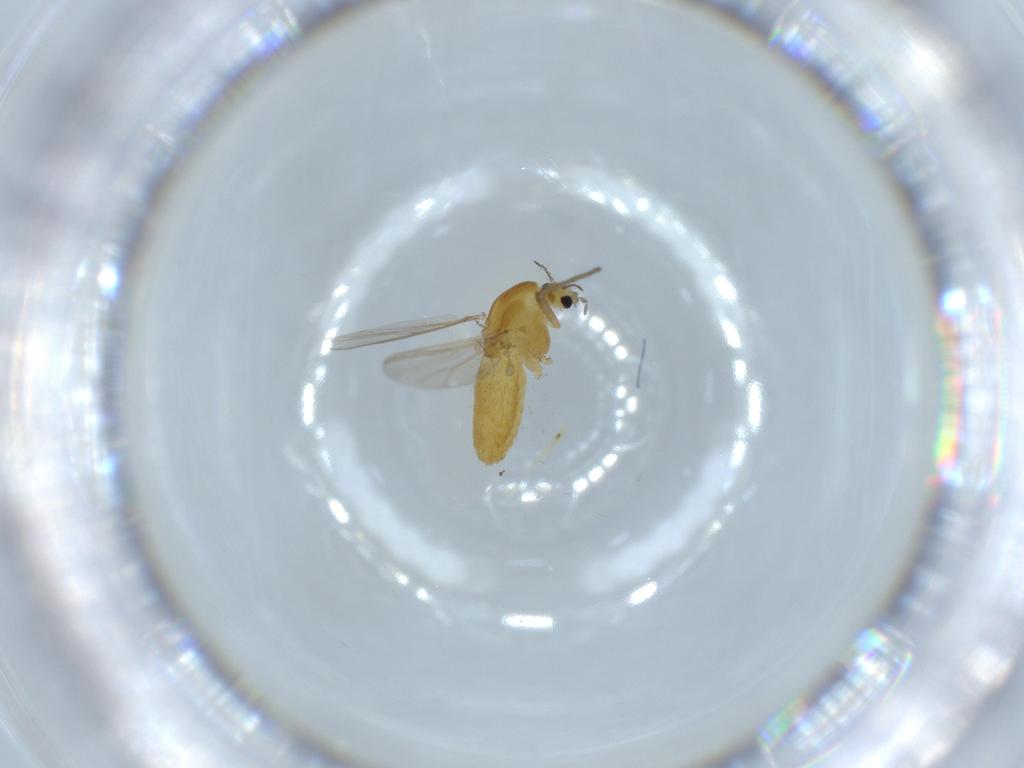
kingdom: Animalia
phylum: Arthropoda
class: Insecta
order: Diptera
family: Chironomidae
